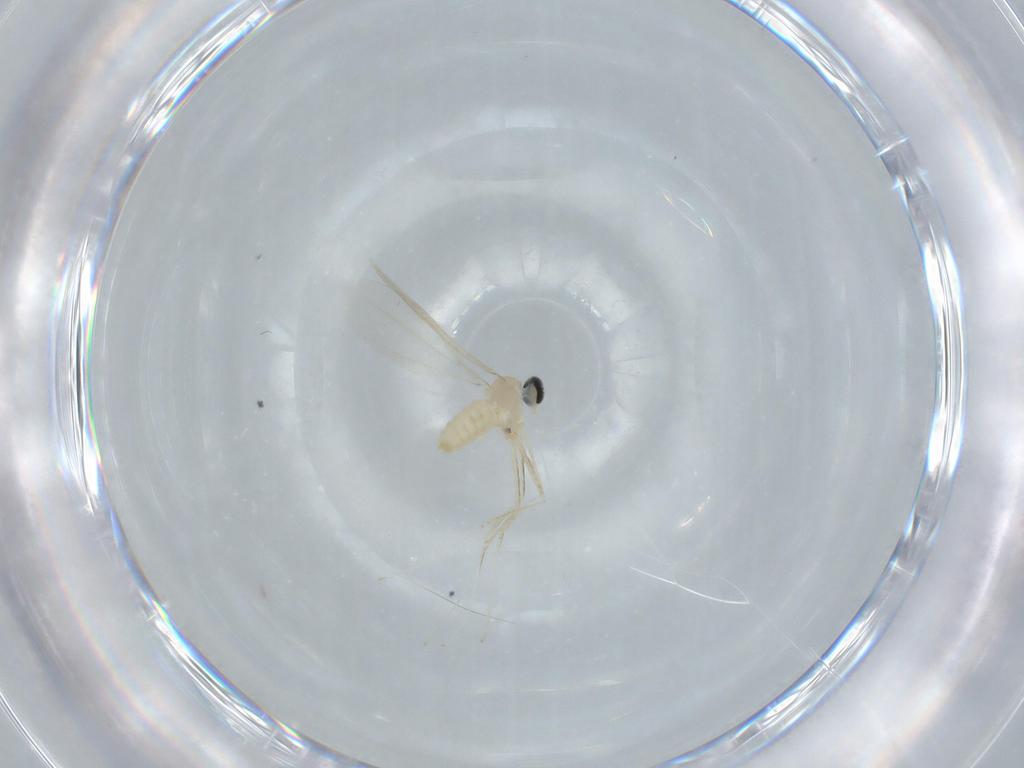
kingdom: Animalia
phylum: Arthropoda
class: Insecta
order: Diptera
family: Cecidomyiidae
